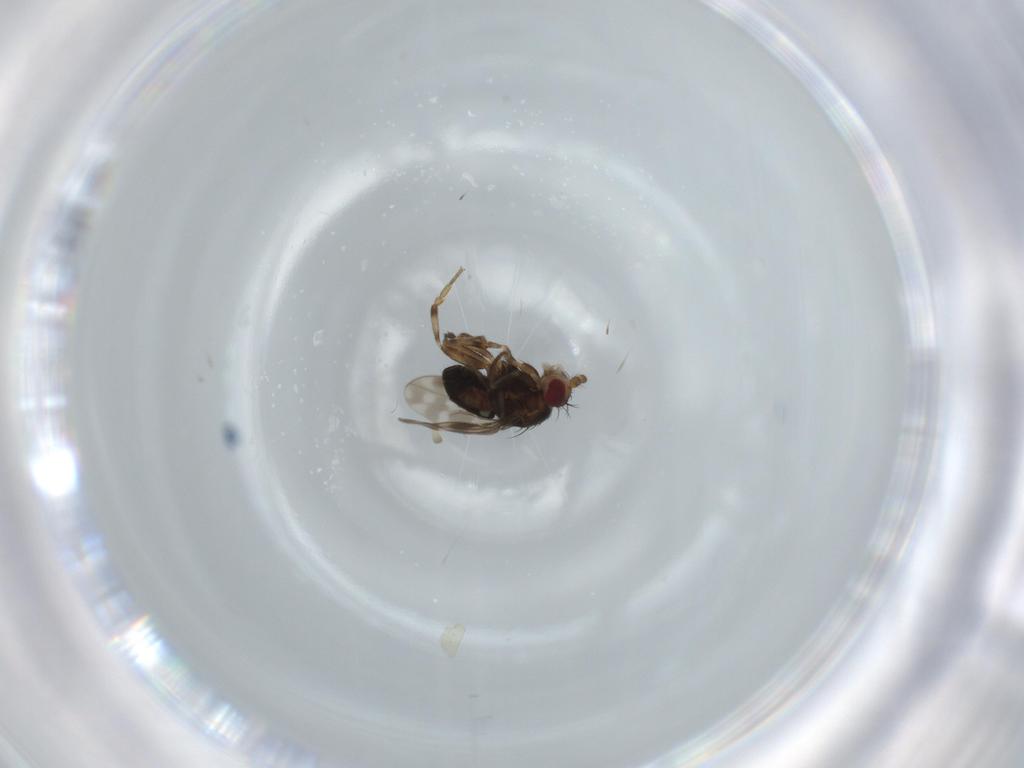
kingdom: Animalia
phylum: Arthropoda
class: Insecta
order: Diptera
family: Sphaeroceridae
